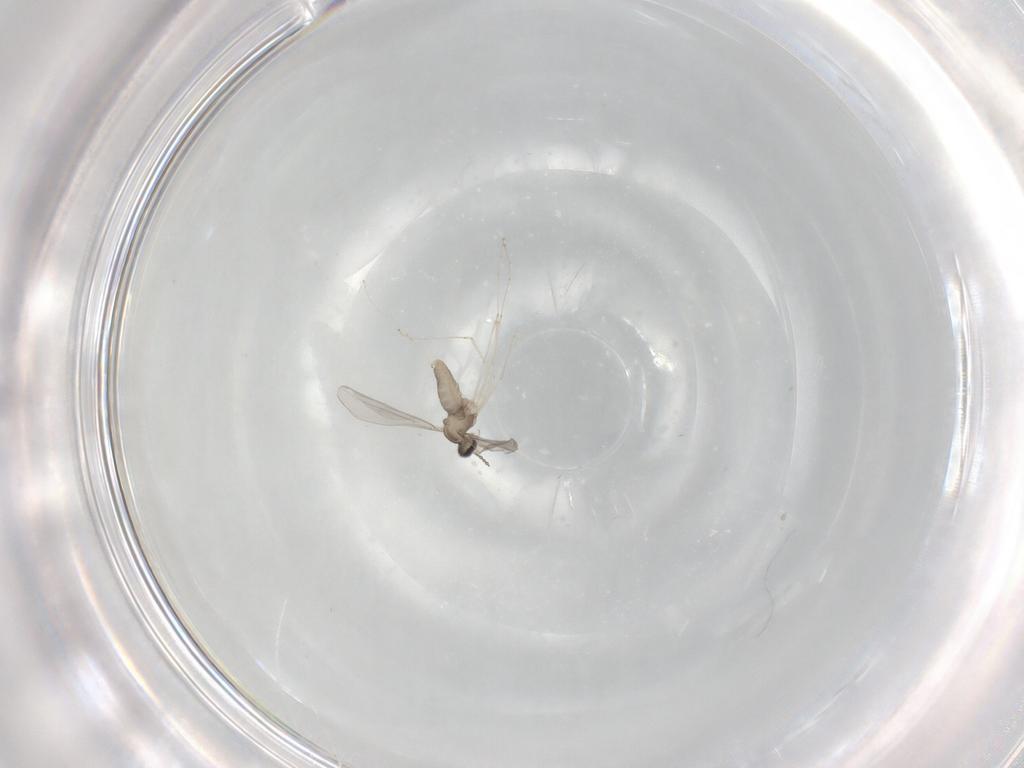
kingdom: Animalia
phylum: Arthropoda
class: Insecta
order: Diptera
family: Cecidomyiidae
